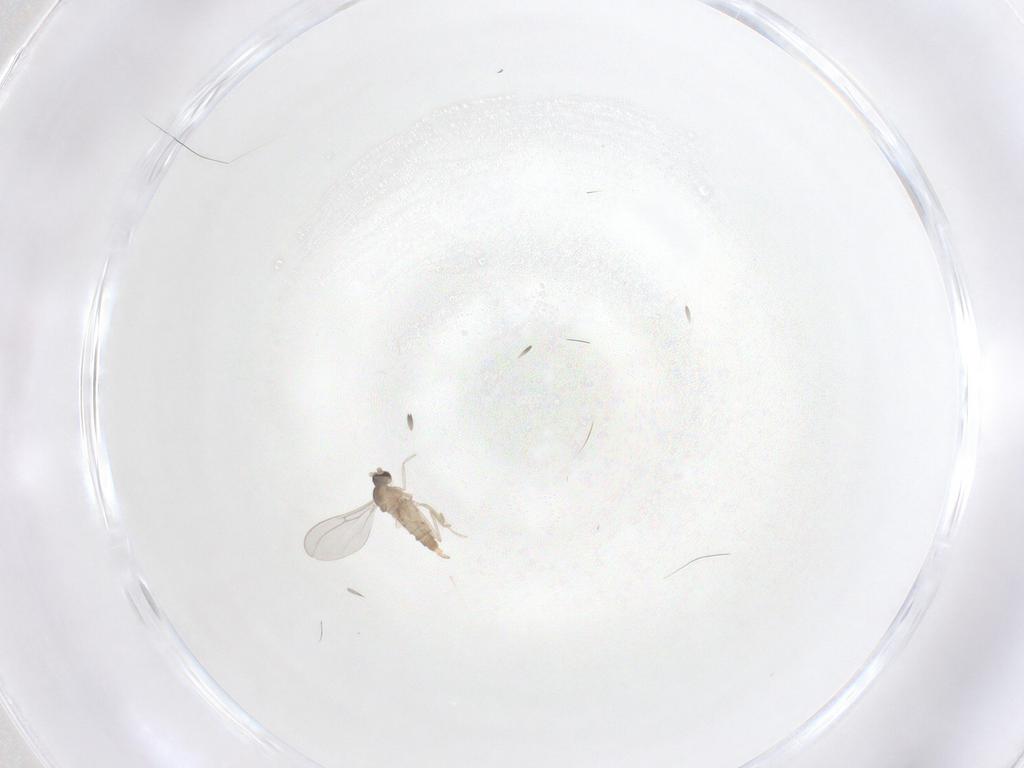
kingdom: Animalia
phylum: Arthropoda
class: Insecta
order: Diptera
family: Cecidomyiidae
